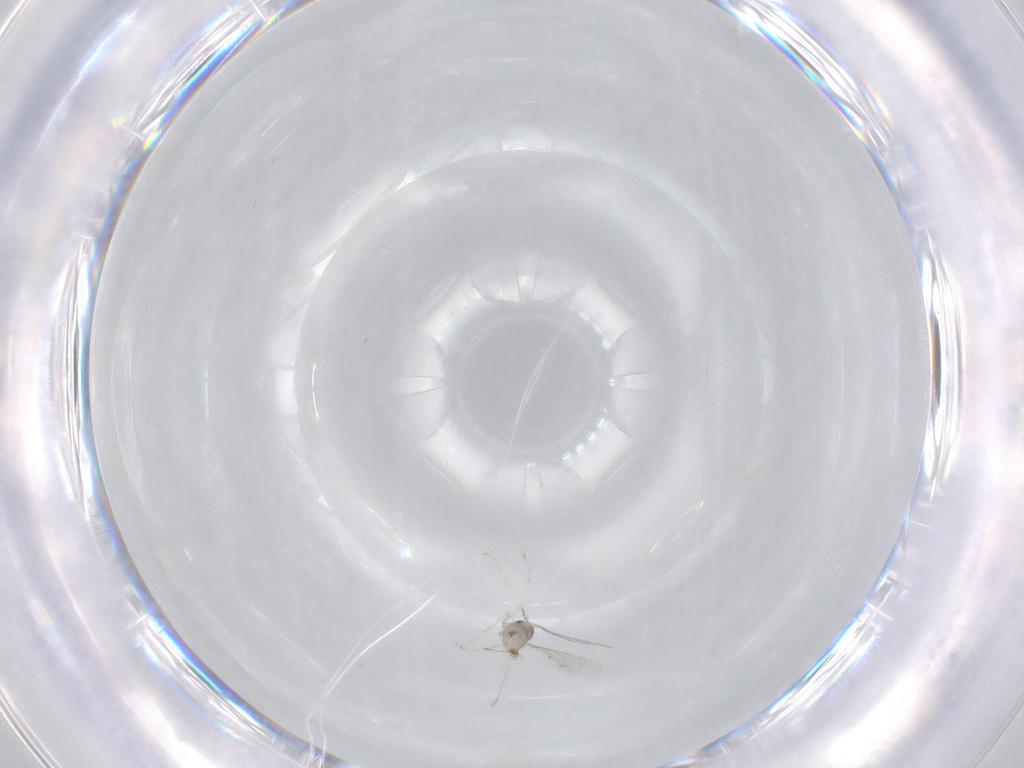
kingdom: Animalia
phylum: Arthropoda
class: Insecta
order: Diptera
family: Cecidomyiidae
